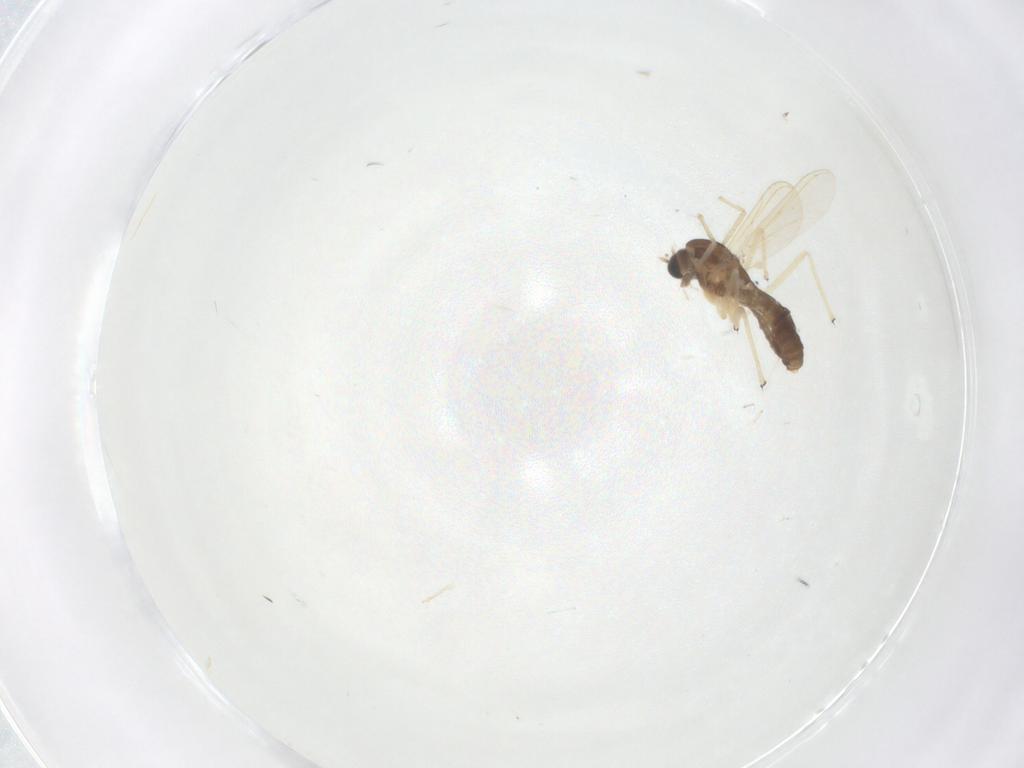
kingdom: Animalia
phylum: Arthropoda
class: Insecta
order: Diptera
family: Chironomidae
